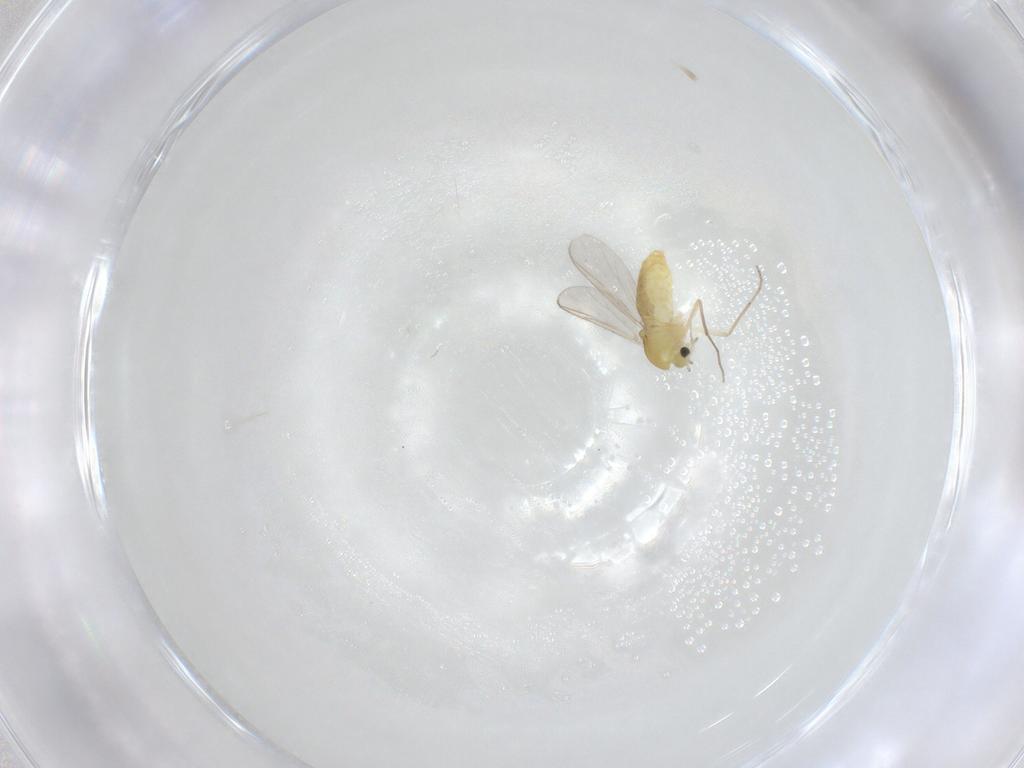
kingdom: Animalia
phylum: Arthropoda
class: Insecta
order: Diptera
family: Chironomidae
